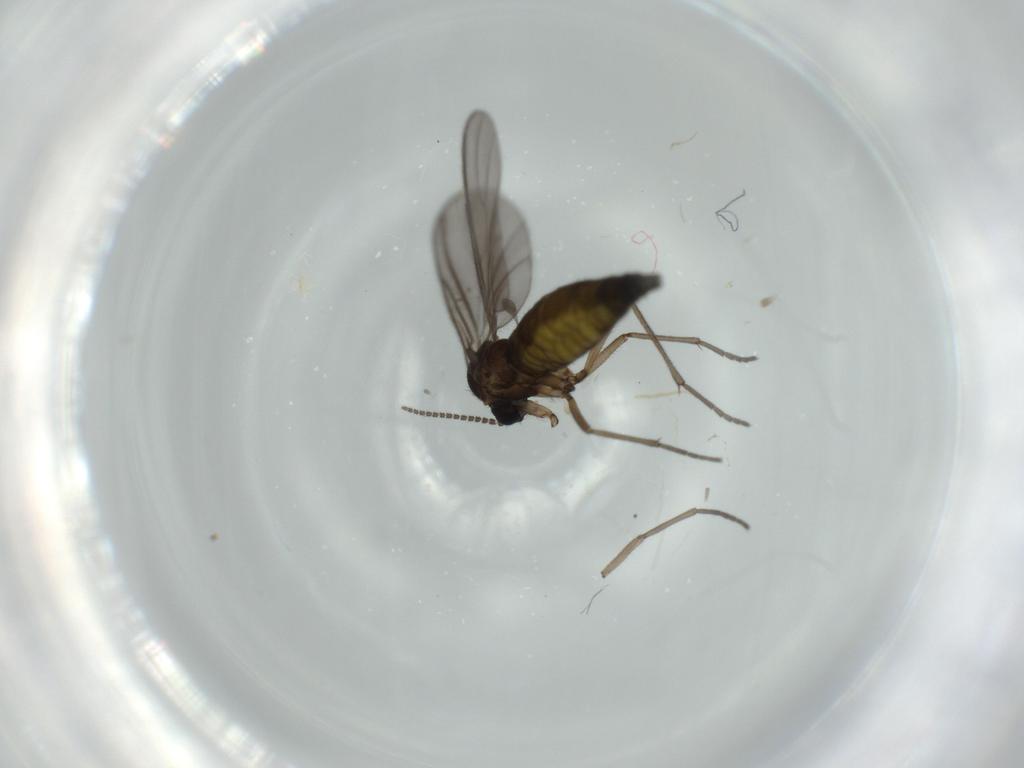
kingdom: Animalia
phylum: Arthropoda
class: Insecta
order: Diptera
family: Sciaridae
